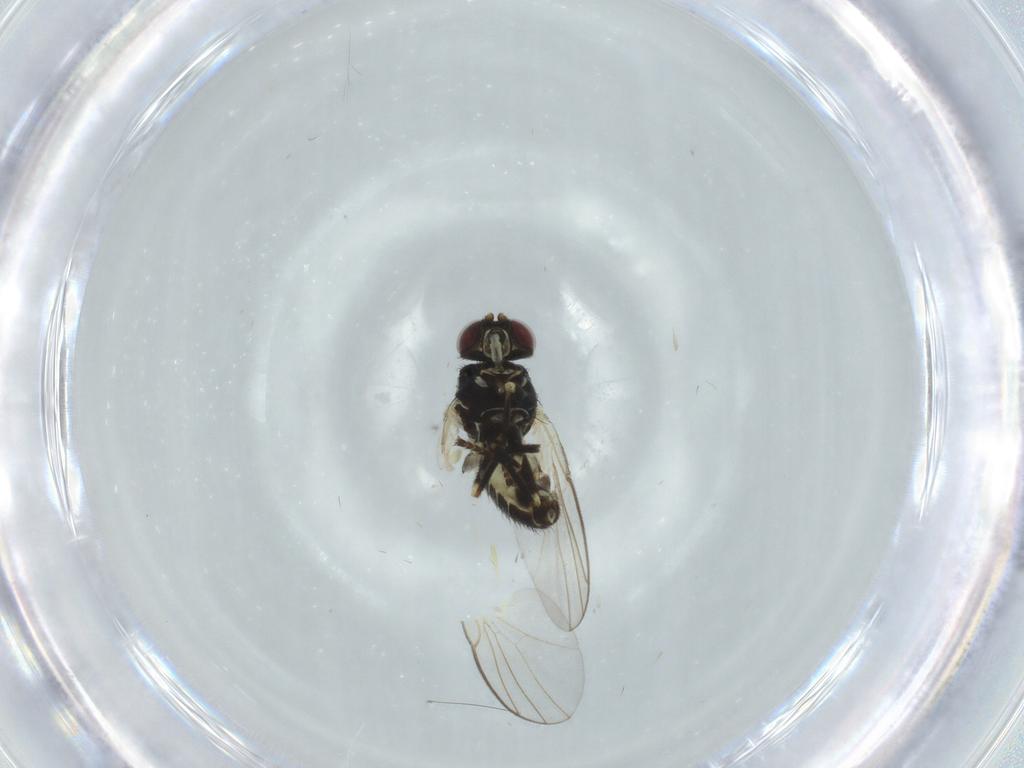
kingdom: Animalia
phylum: Arthropoda
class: Insecta
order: Diptera
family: Agromyzidae
